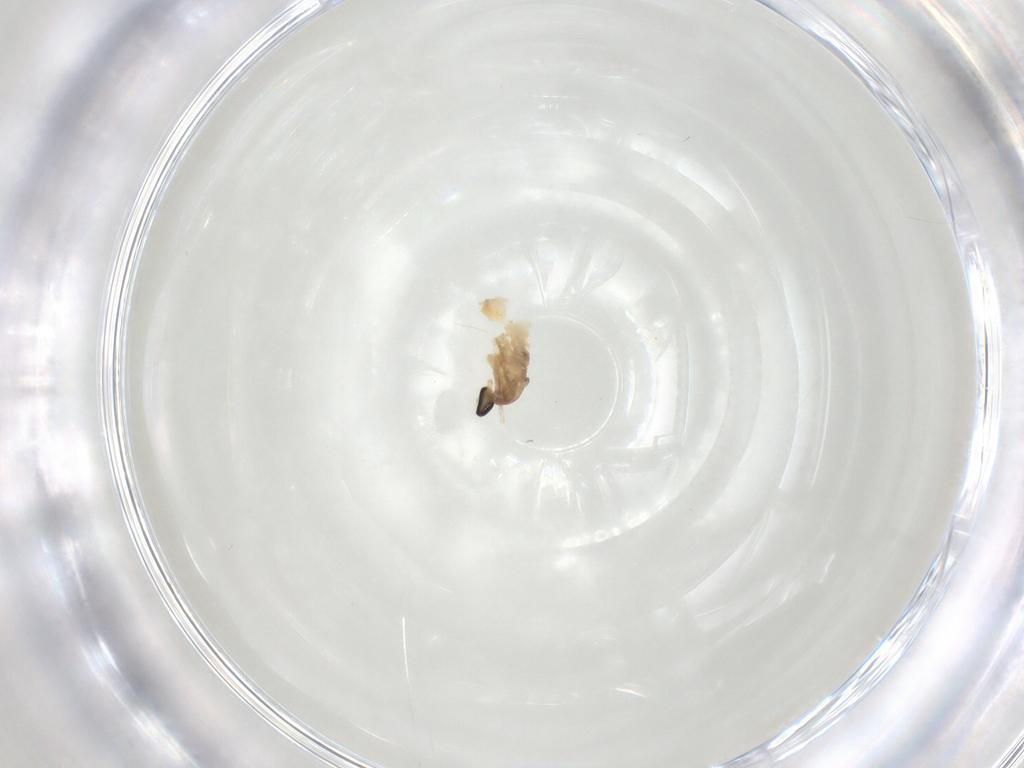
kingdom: Animalia
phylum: Arthropoda
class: Insecta
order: Diptera
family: Cecidomyiidae
